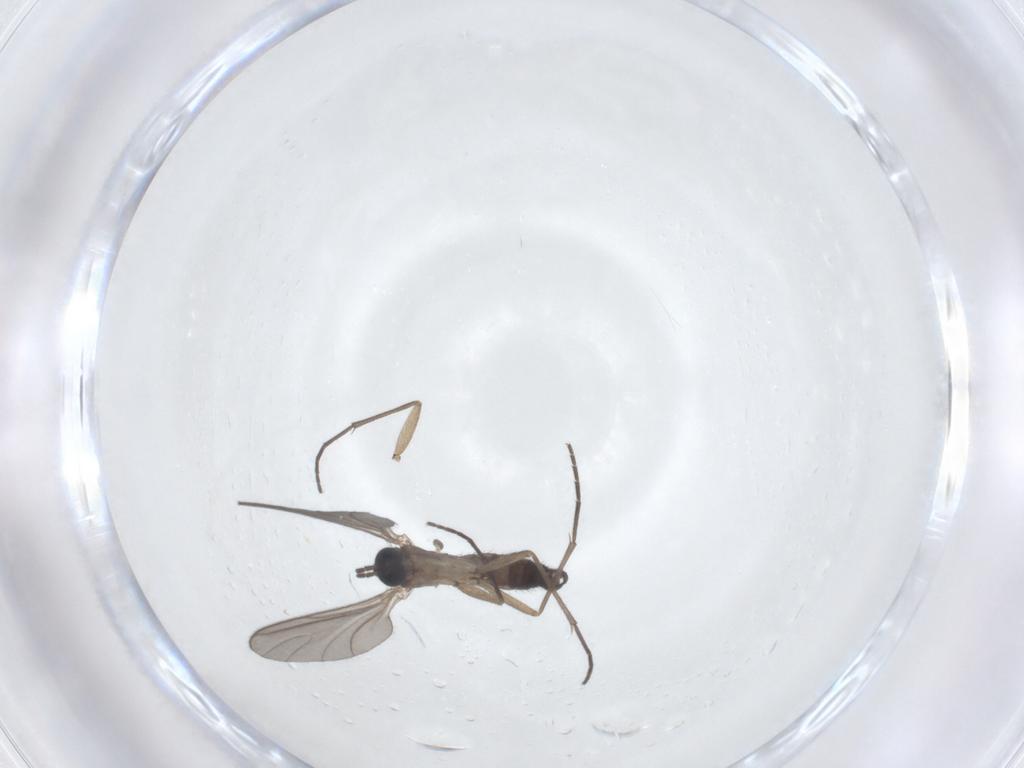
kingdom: Animalia
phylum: Arthropoda
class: Insecta
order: Diptera
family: Sciaridae
